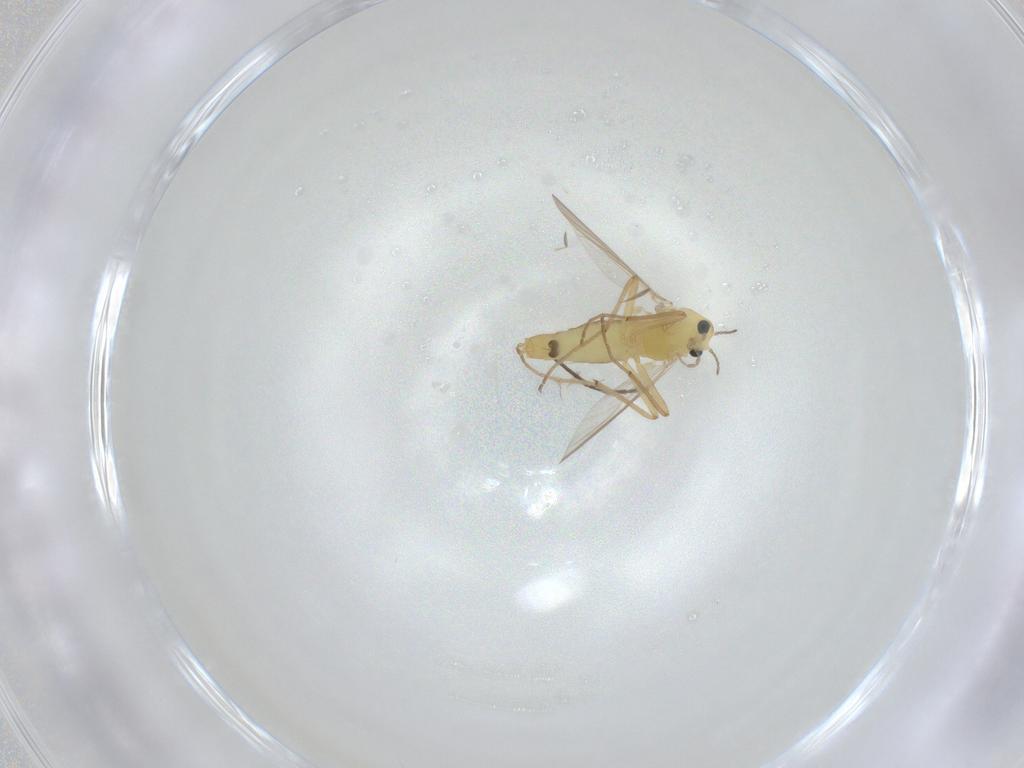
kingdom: Animalia
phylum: Arthropoda
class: Insecta
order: Diptera
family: Chironomidae
